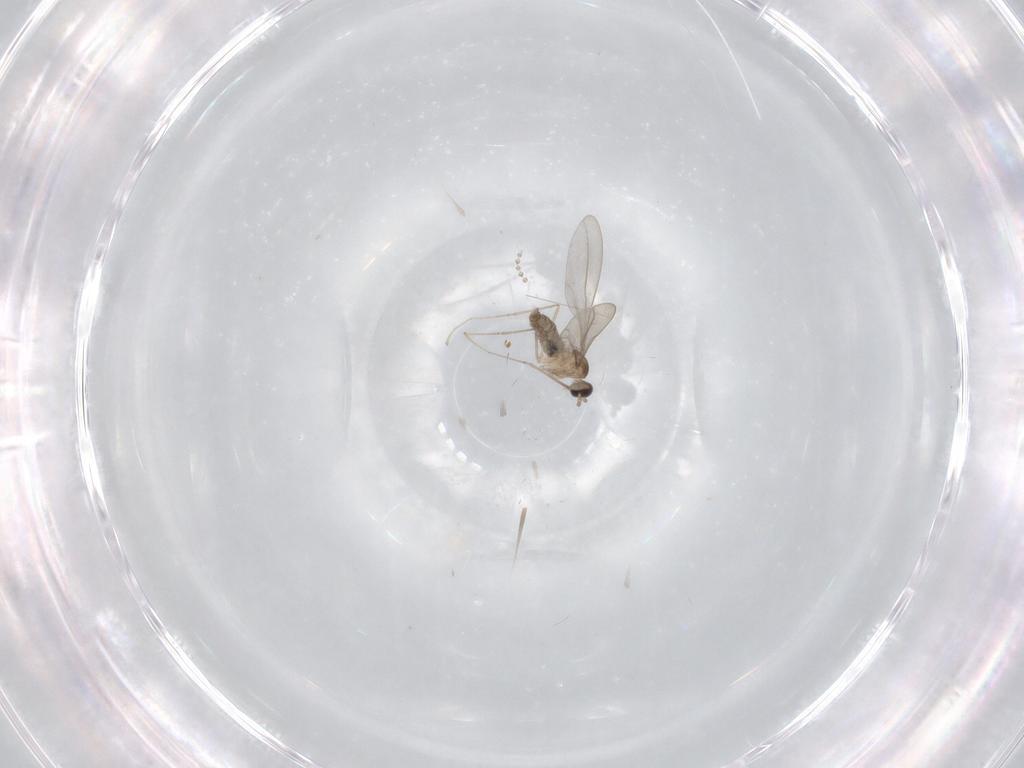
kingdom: Animalia
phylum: Arthropoda
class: Insecta
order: Diptera
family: Cecidomyiidae
